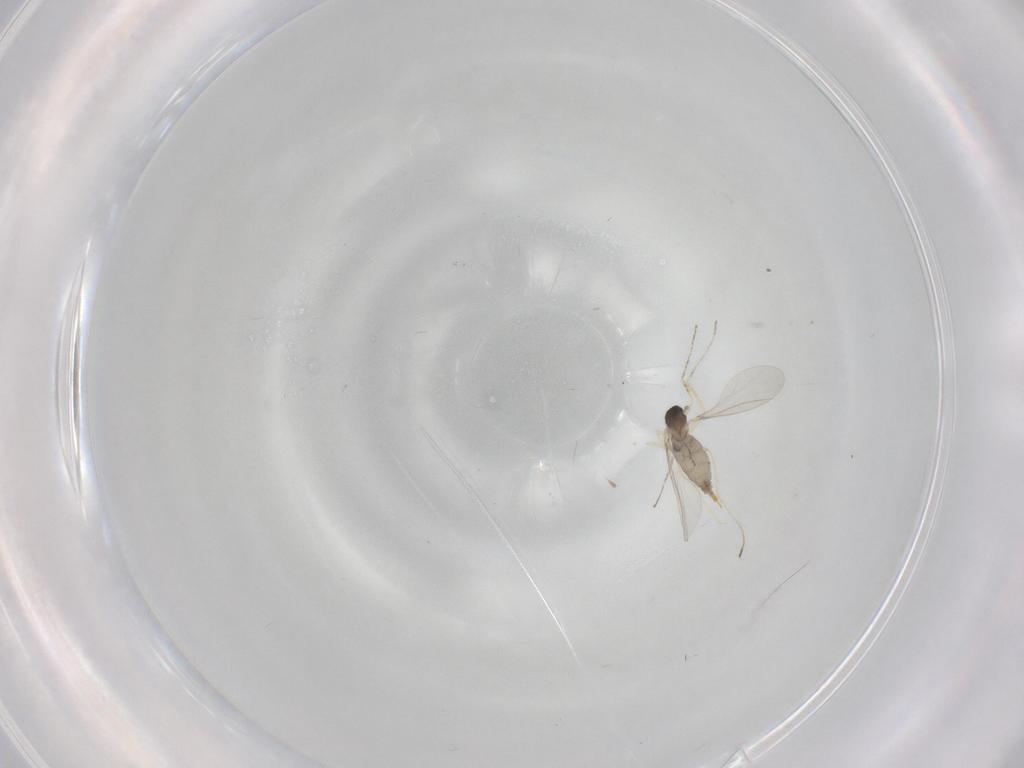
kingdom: Animalia
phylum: Arthropoda
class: Insecta
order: Diptera
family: Cecidomyiidae
